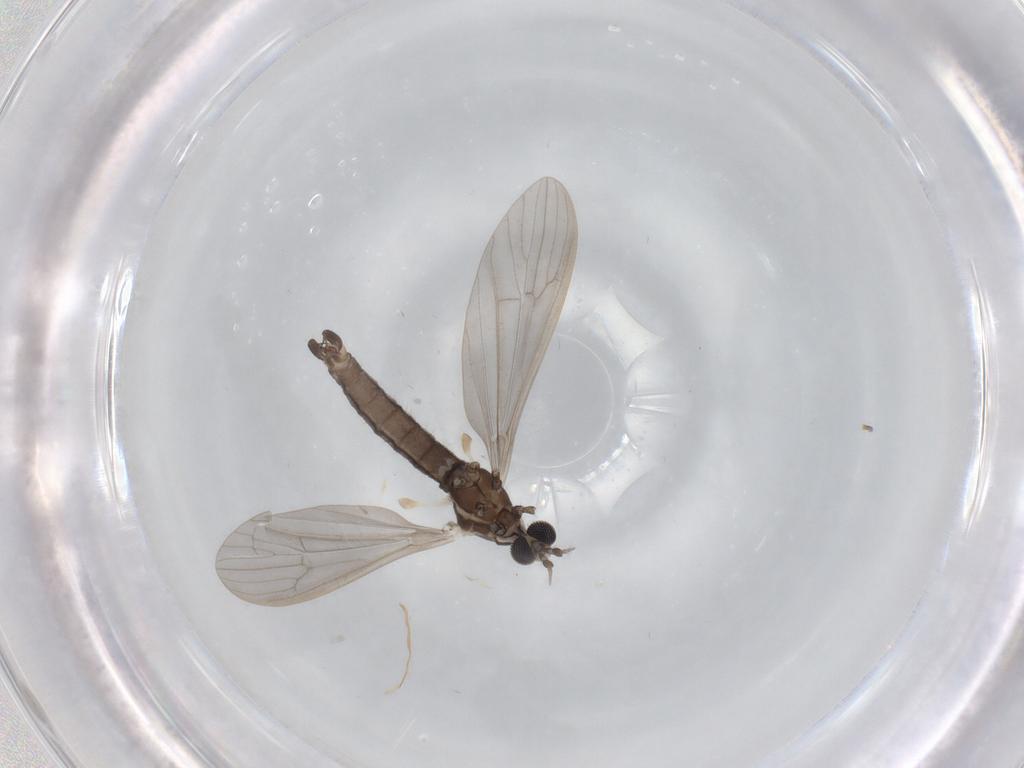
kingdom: Animalia
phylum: Arthropoda
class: Insecta
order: Diptera
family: Limoniidae
